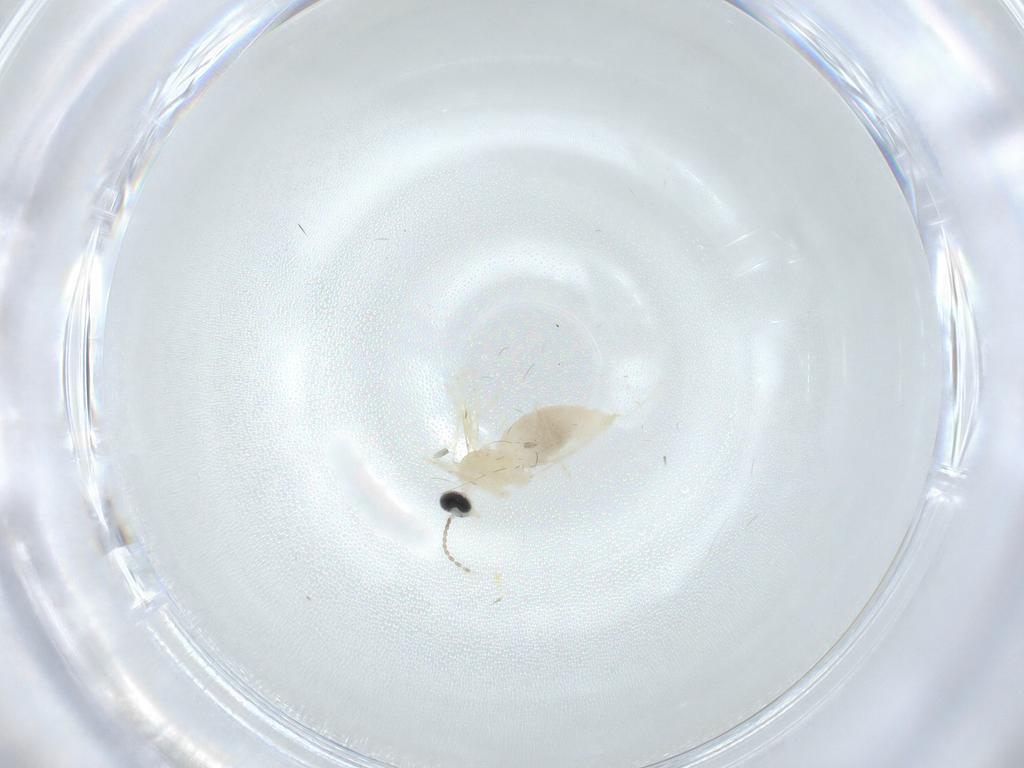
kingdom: Animalia
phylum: Arthropoda
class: Insecta
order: Diptera
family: Cecidomyiidae
